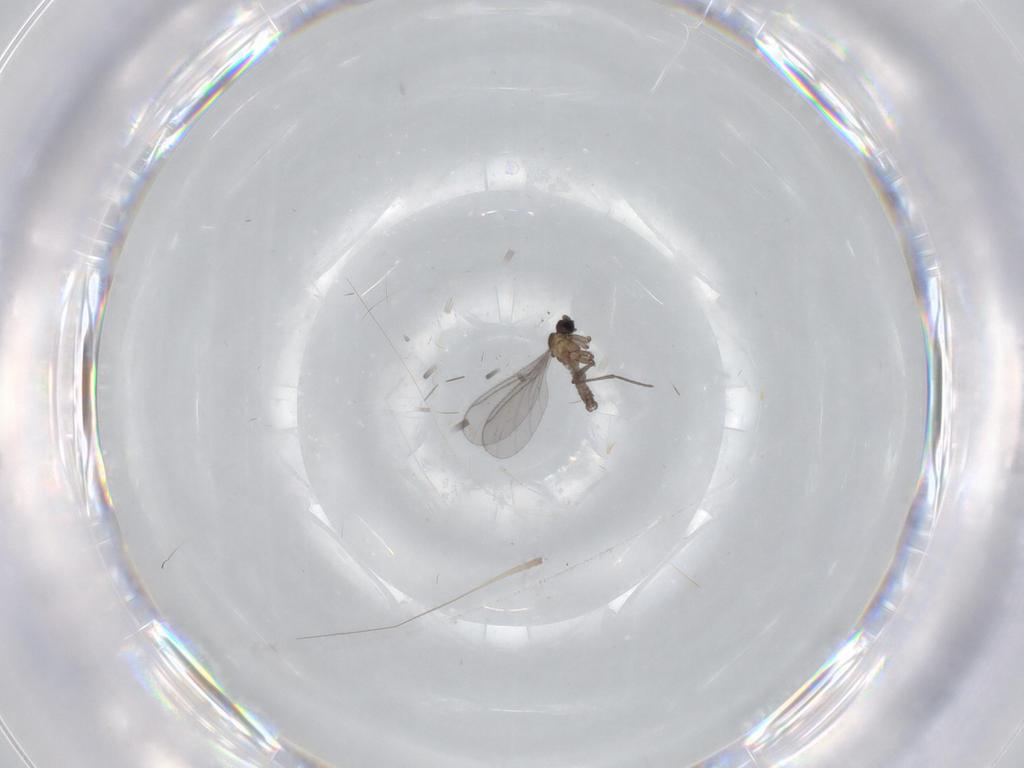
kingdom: Animalia
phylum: Arthropoda
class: Insecta
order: Diptera
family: Sciaridae
